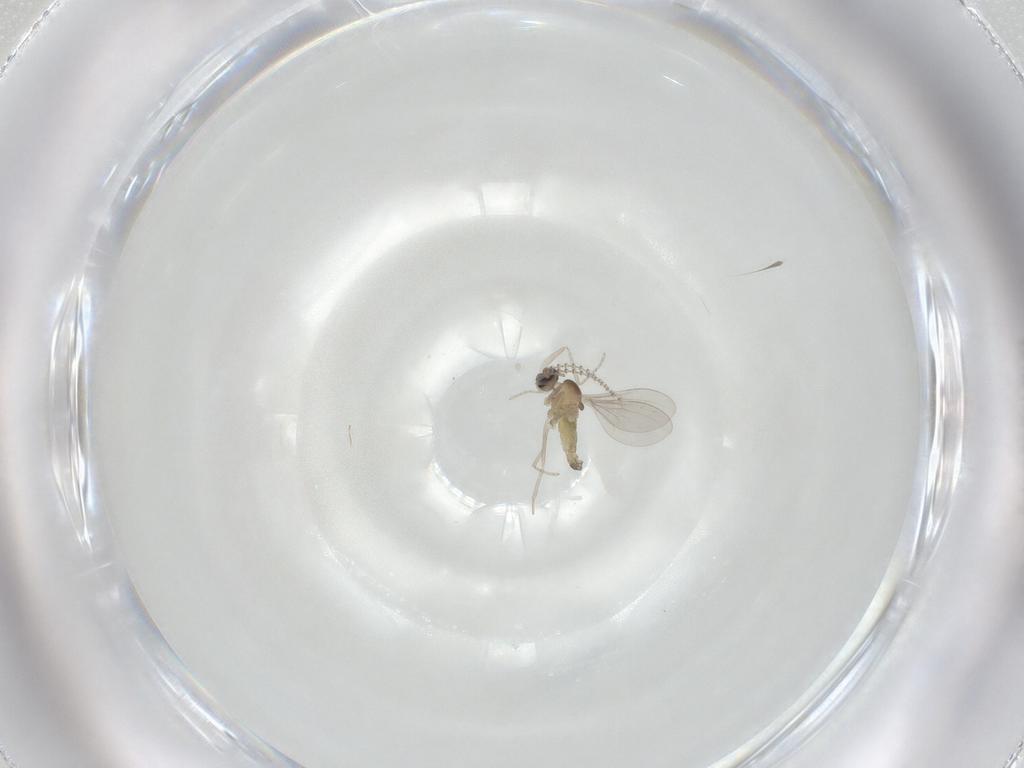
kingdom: Animalia
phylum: Arthropoda
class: Insecta
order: Diptera
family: Cecidomyiidae
